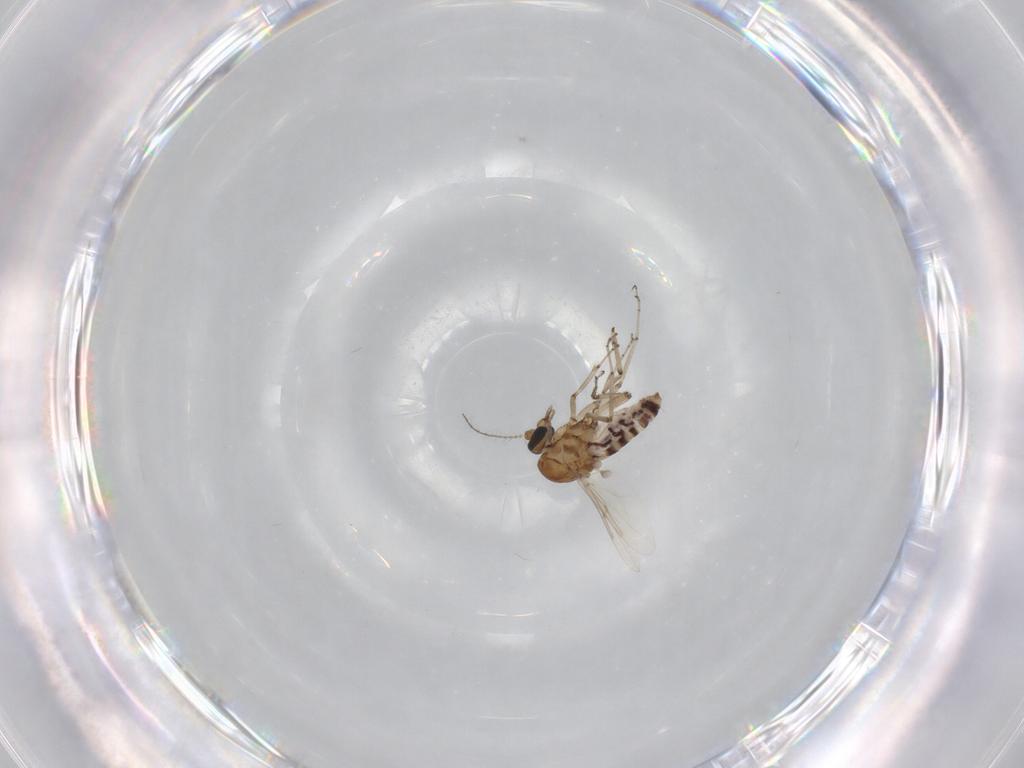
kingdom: Animalia
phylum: Arthropoda
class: Insecta
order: Diptera
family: Ceratopogonidae
